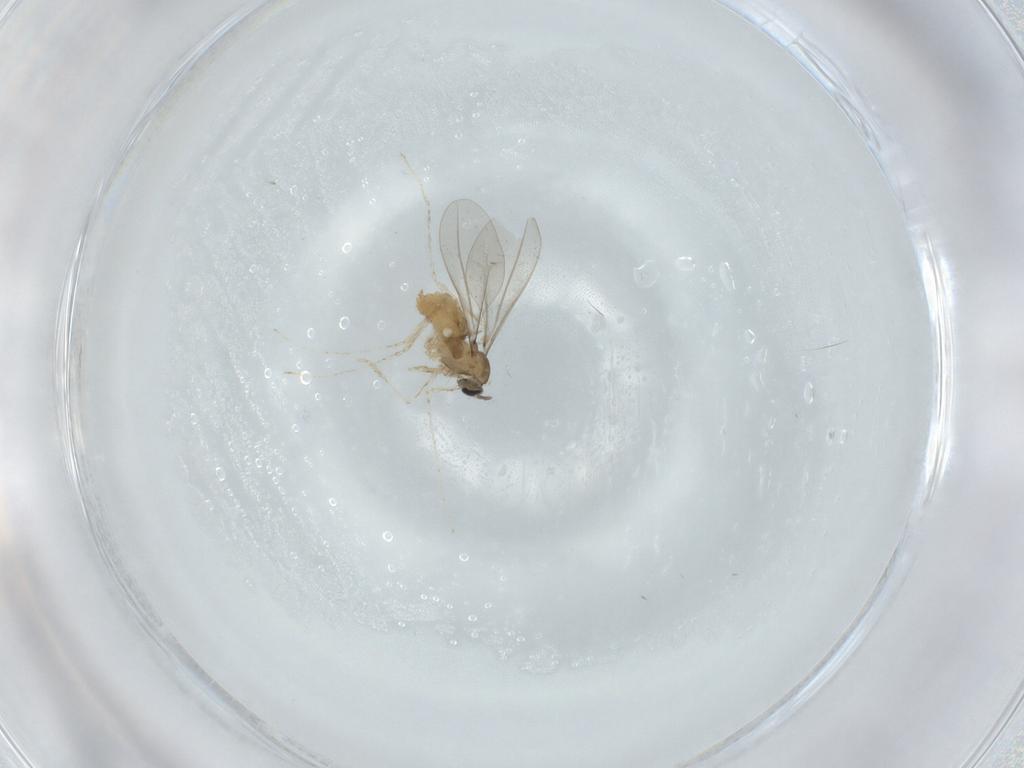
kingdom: Animalia
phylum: Arthropoda
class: Insecta
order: Diptera
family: Cecidomyiidae
